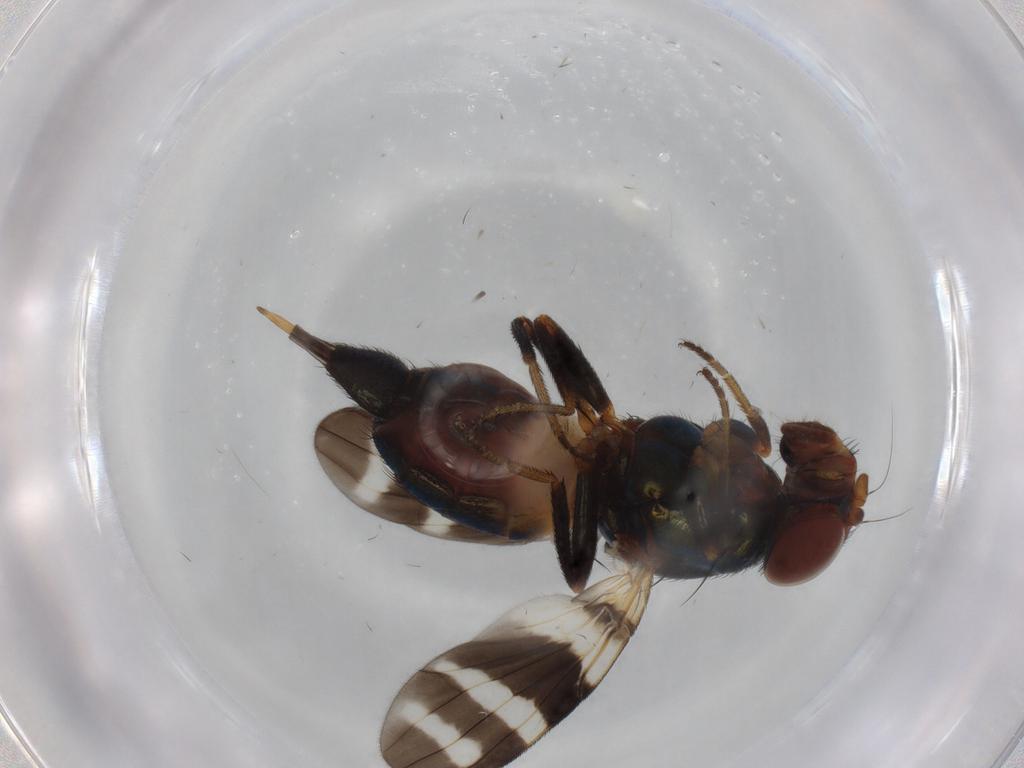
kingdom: Animalia
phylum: Arthropoda
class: Insecta
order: Diptera
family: Ulidiidae
